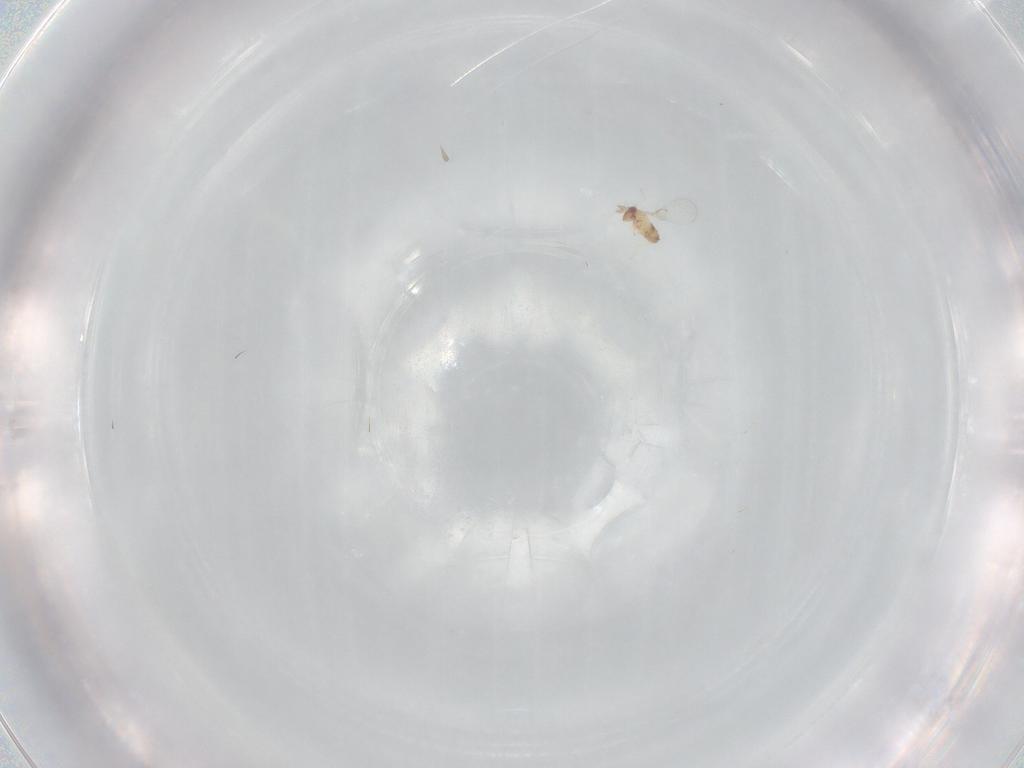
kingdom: Animalia
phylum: Arthropoda
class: Insecta
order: Hymenoptera
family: Trichogrammatidae
